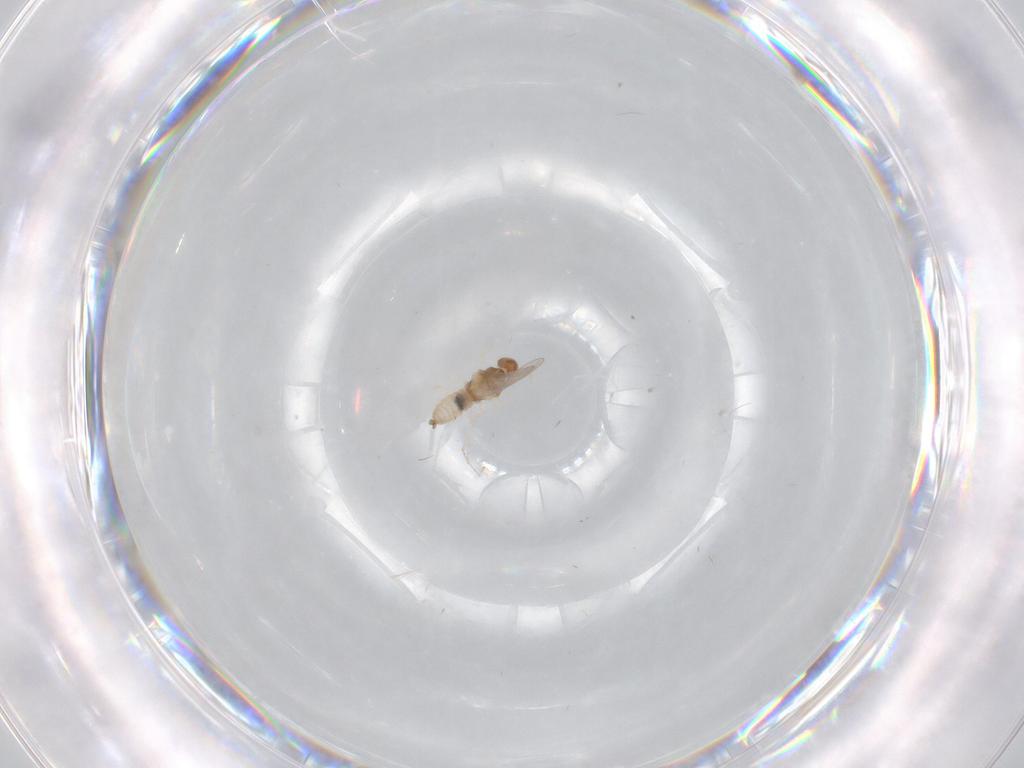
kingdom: Animalia
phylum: Arthropoda
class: Insecta
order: Diptera
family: Cecidomyiidae
